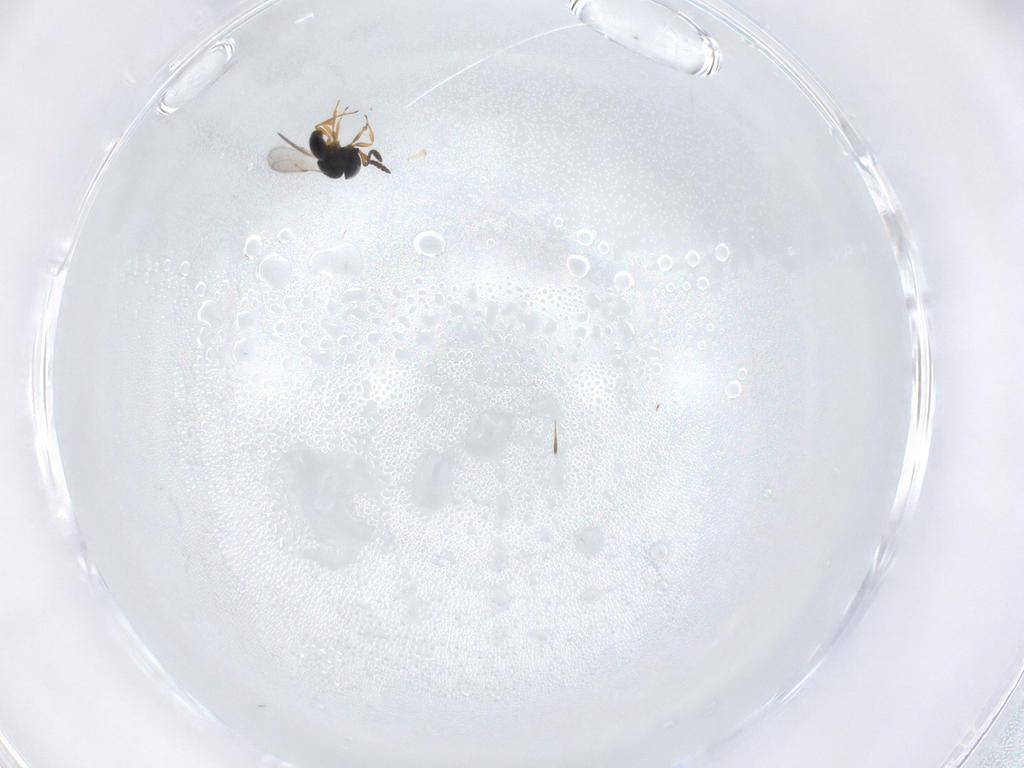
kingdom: Animalia
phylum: Arthropoda
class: Insecta
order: Hymenoptera
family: Scelionidae
